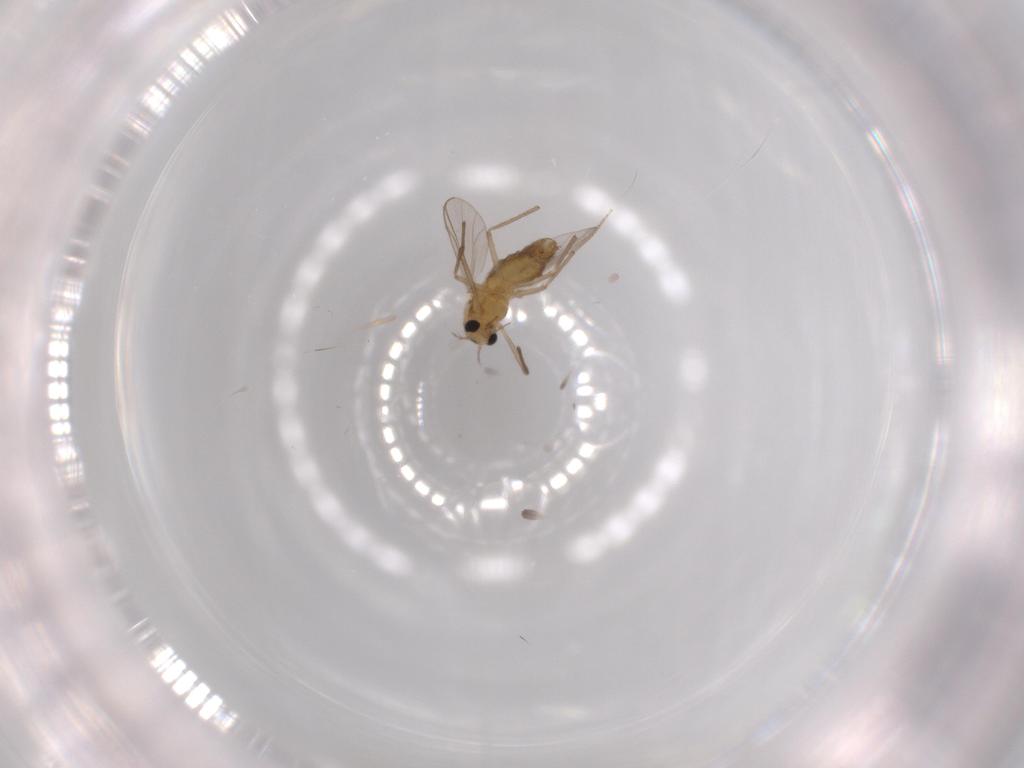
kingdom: Animalia
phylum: Arthropoda
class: Insecta
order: Diptera
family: Chironomidae
